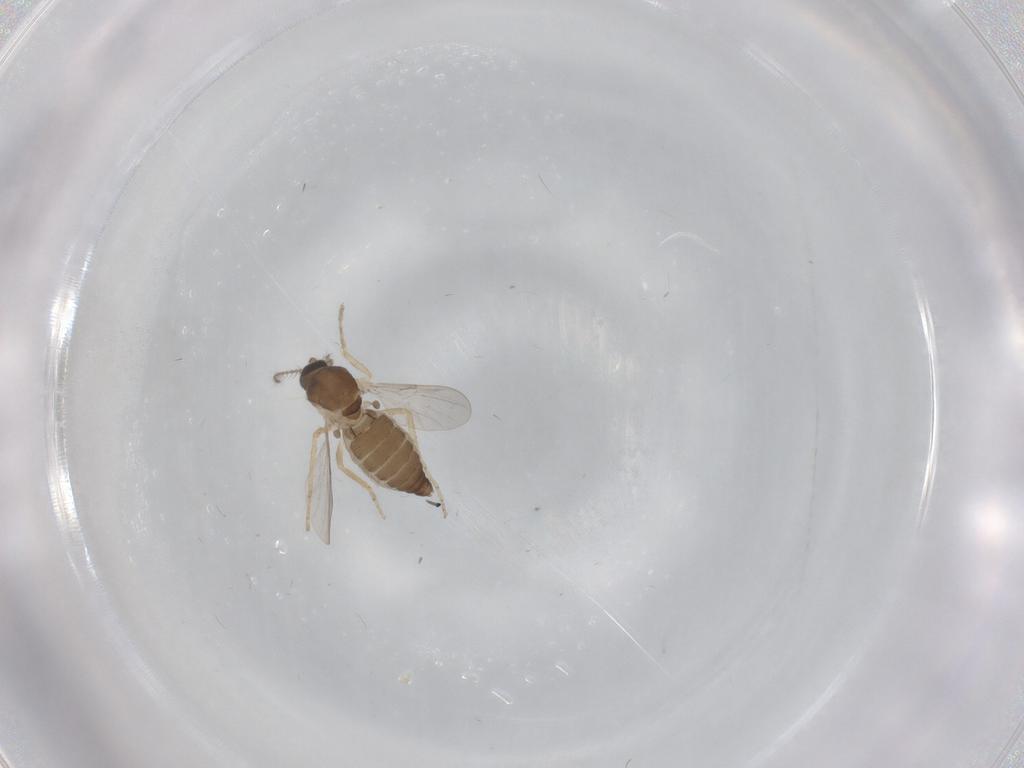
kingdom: Animalia
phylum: Arthropoda
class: Insecta
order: Diptera
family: Ceratopogonidae
